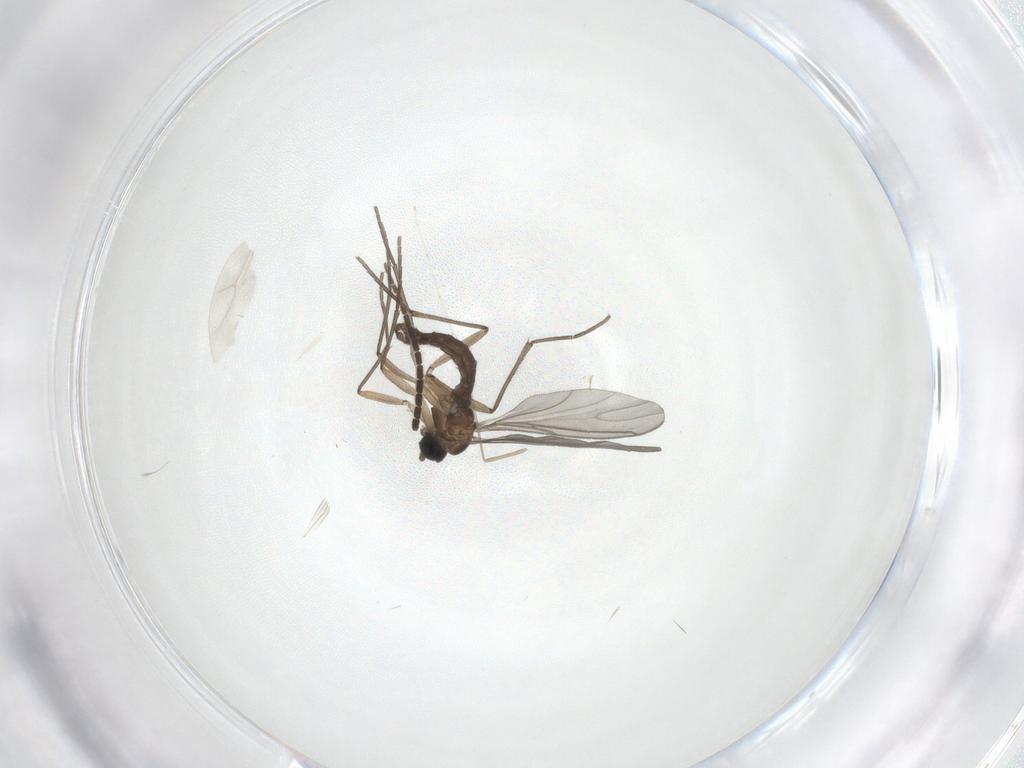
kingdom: Animalia
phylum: Arthropoda
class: Insecta
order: Diptera
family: Sciaridae
